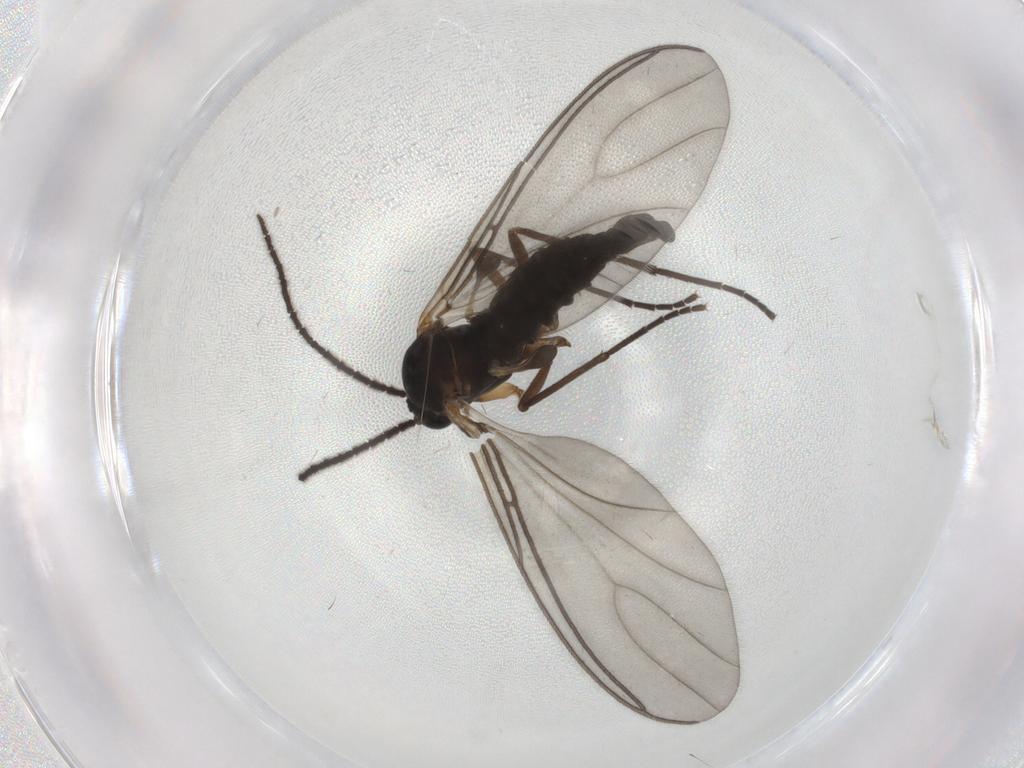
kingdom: Animalia
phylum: Arthropoda
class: Insecta
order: Diptera
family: Sciaridae
